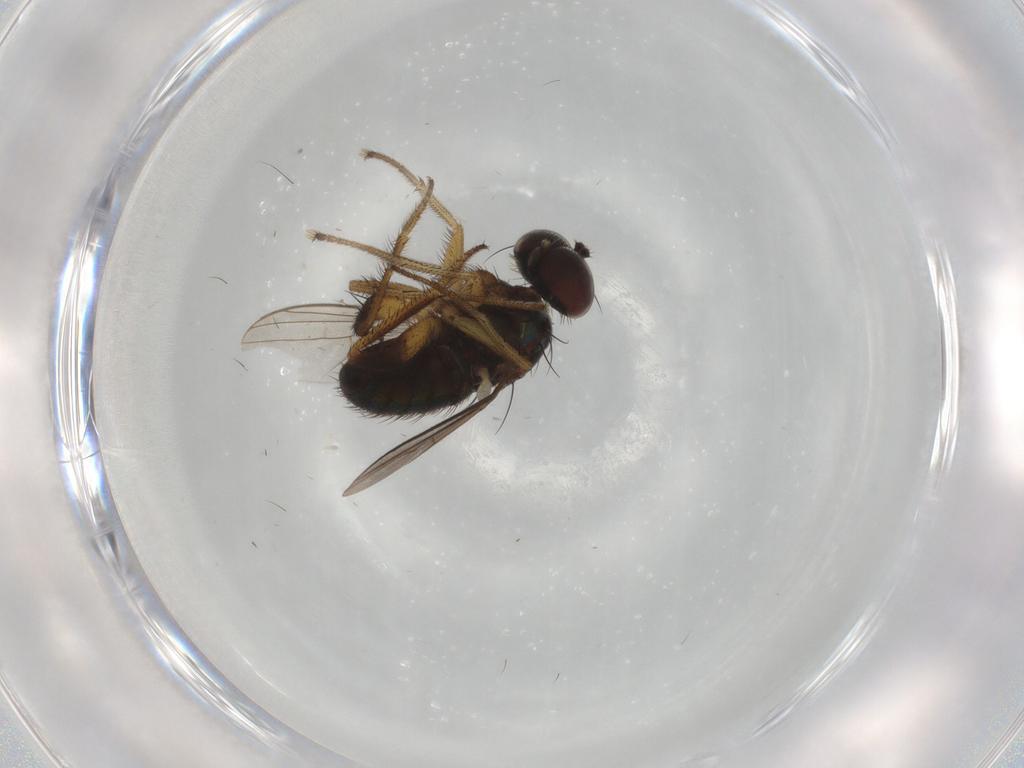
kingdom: Animalia
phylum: Arthropoda
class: Insecta
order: Diptera
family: Dolichopodidae
